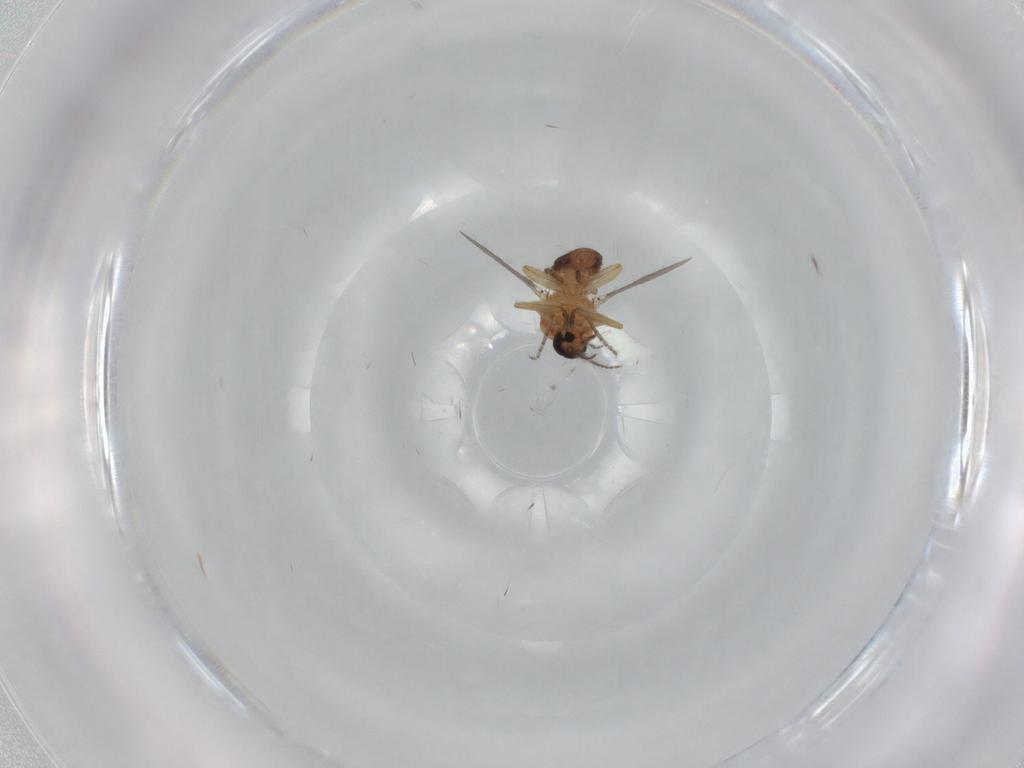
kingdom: Animalia
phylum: Arthropoda
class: Insecta
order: Diptera
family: Ceratopogonidae
